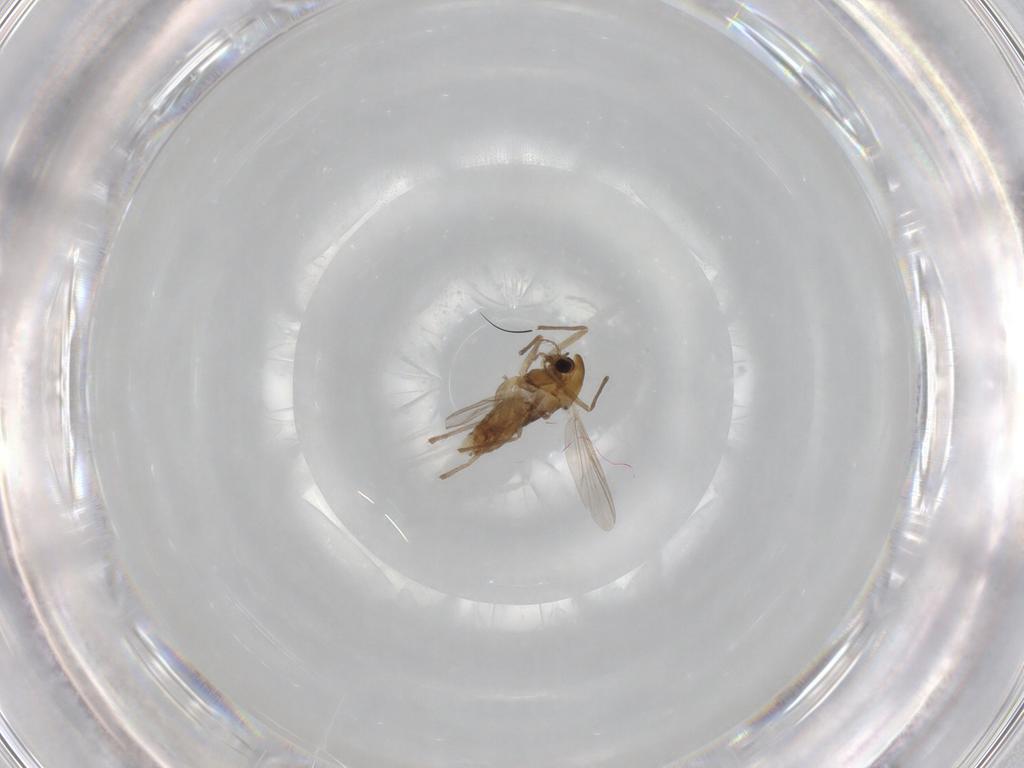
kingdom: Animalia
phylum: Arthropoda
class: Insecta
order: Diptera
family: Chironomidae
